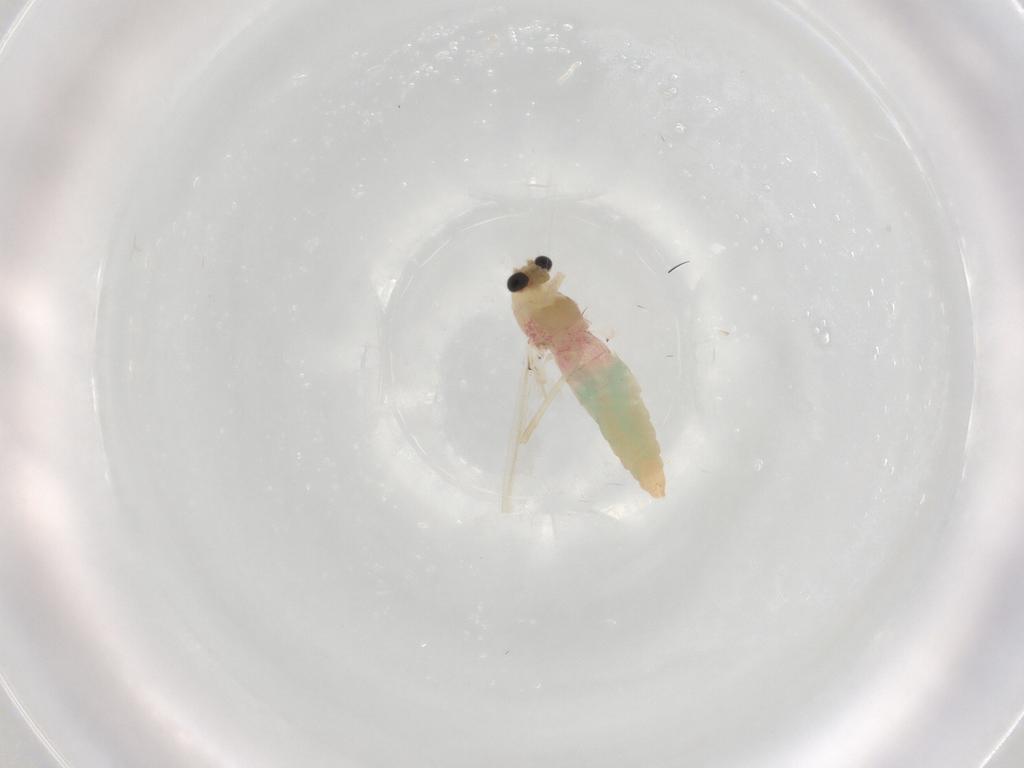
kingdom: Animalia
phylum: Arthropoda
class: Insecta
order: Diptera
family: Chironomidae
